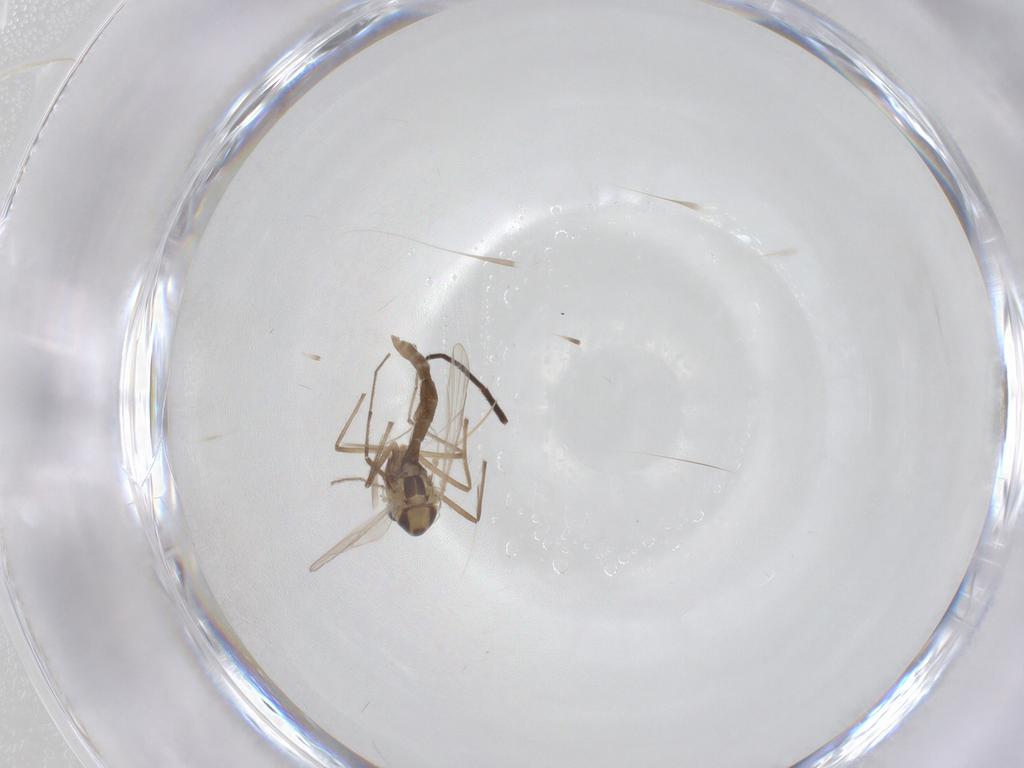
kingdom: Animalia
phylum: Arthropoda
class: Insecta
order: Diptera
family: Chironomidae
